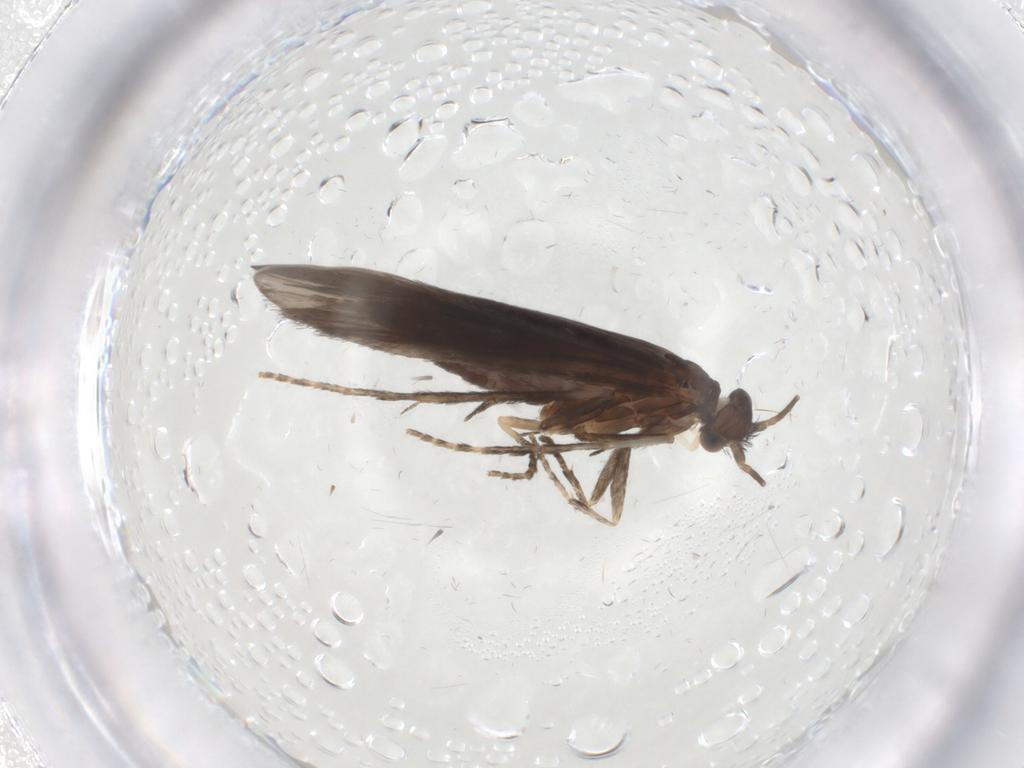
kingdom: Animalia
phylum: Arthropoda
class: Insecta
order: Trichoptera
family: Xiphocentronidae
